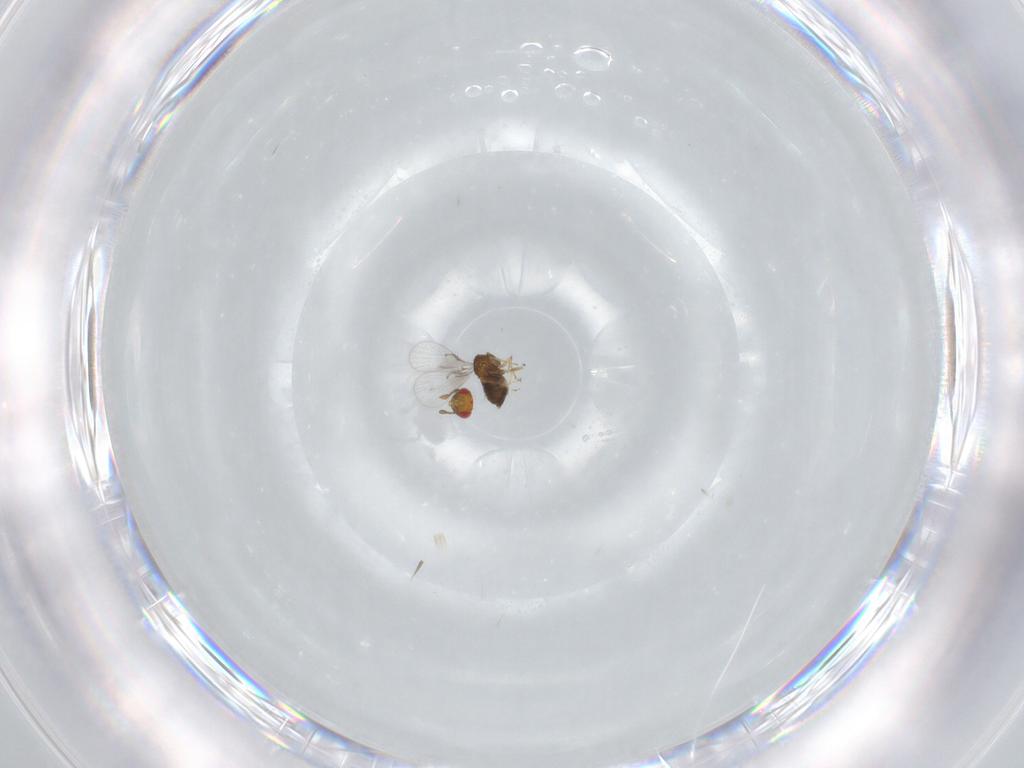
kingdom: Animalia
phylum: Arthropoda
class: Insecta
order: Hymenoptera
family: Trichogrammatidae
